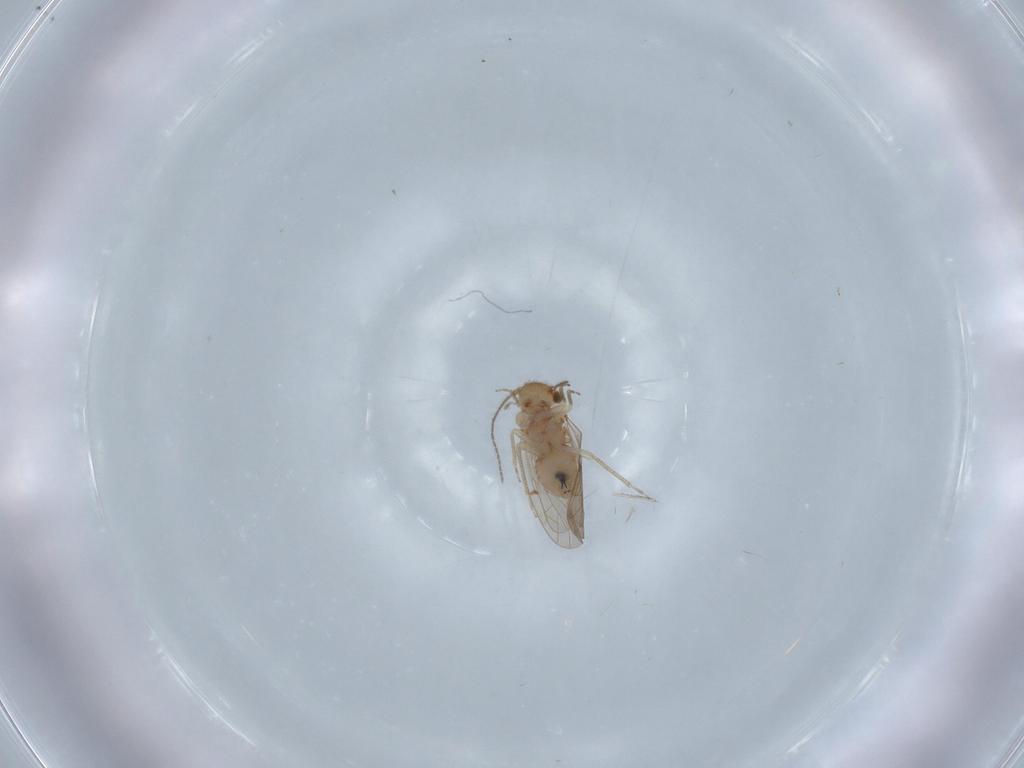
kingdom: Animalia
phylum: Arthropoda
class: Insecta
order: Psocodea
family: Ectopsocidae
